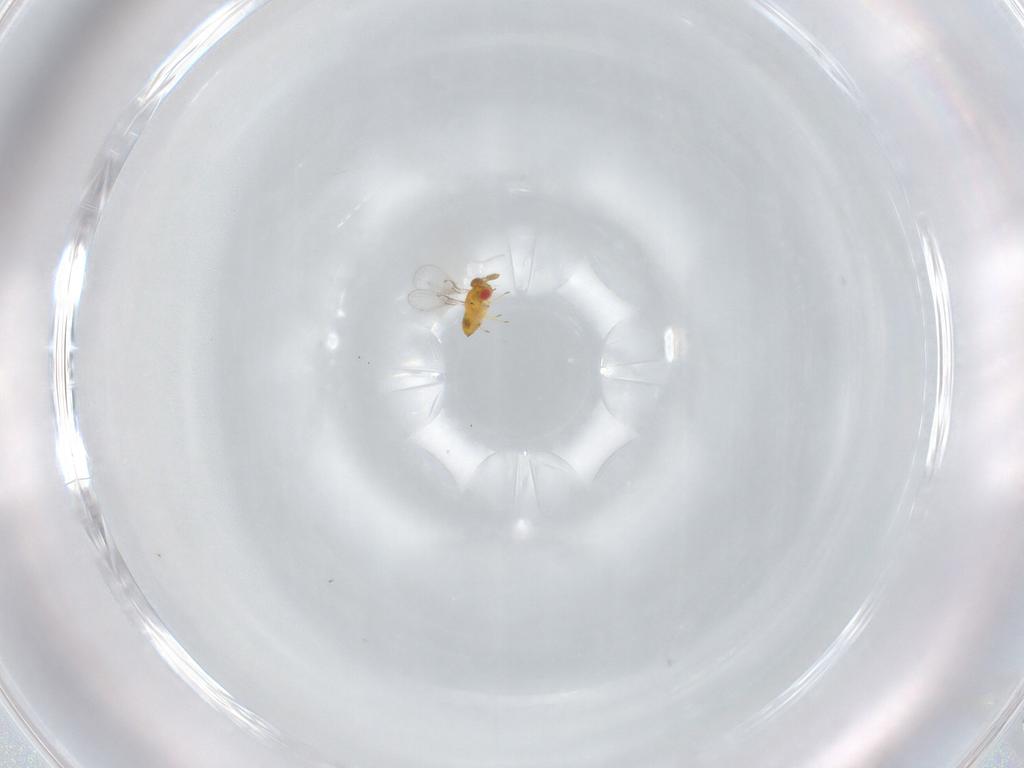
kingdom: Animalia
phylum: Arthropoda
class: Insecta
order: Hymenoptera
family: Trichogrammatidae
